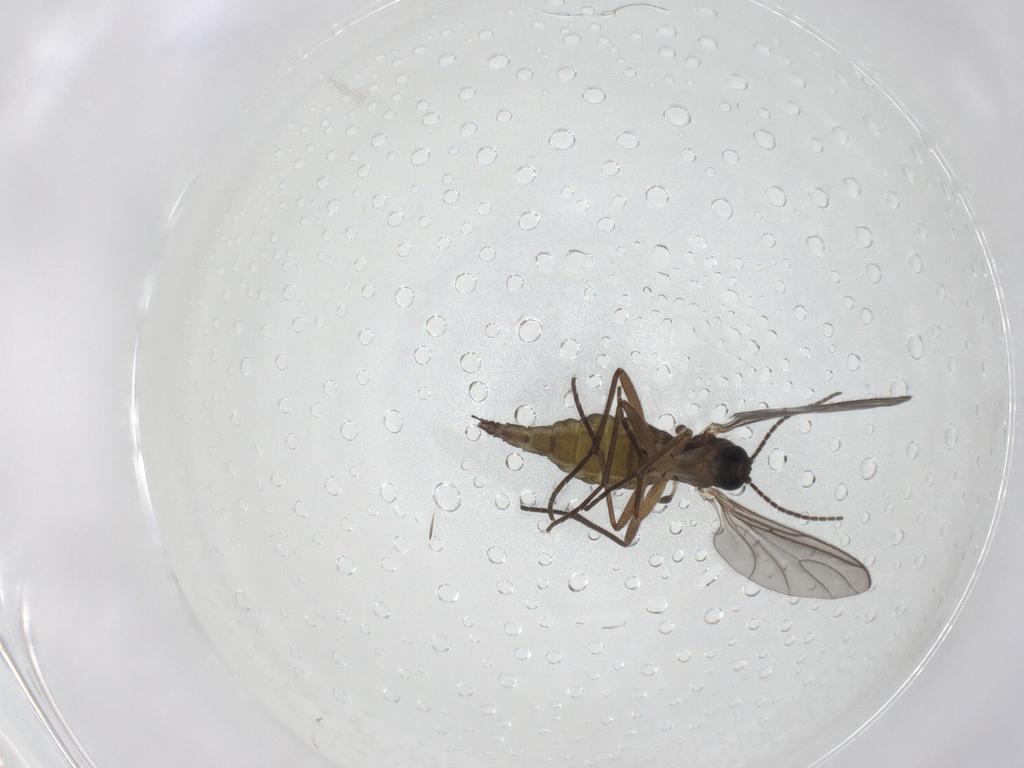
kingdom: Animalia
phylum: Arthropoda
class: Insecta
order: Diptera
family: Sciaridae
